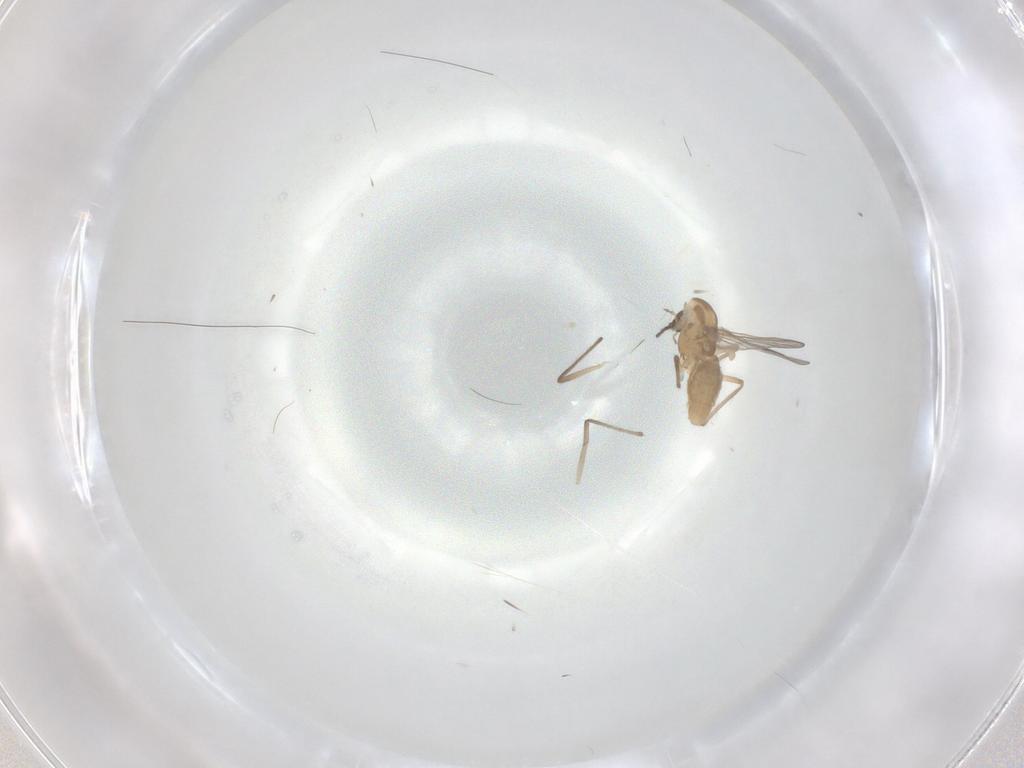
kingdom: Animalia
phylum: Arthropoda
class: Insecta
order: Diptera
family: Chironomidae
